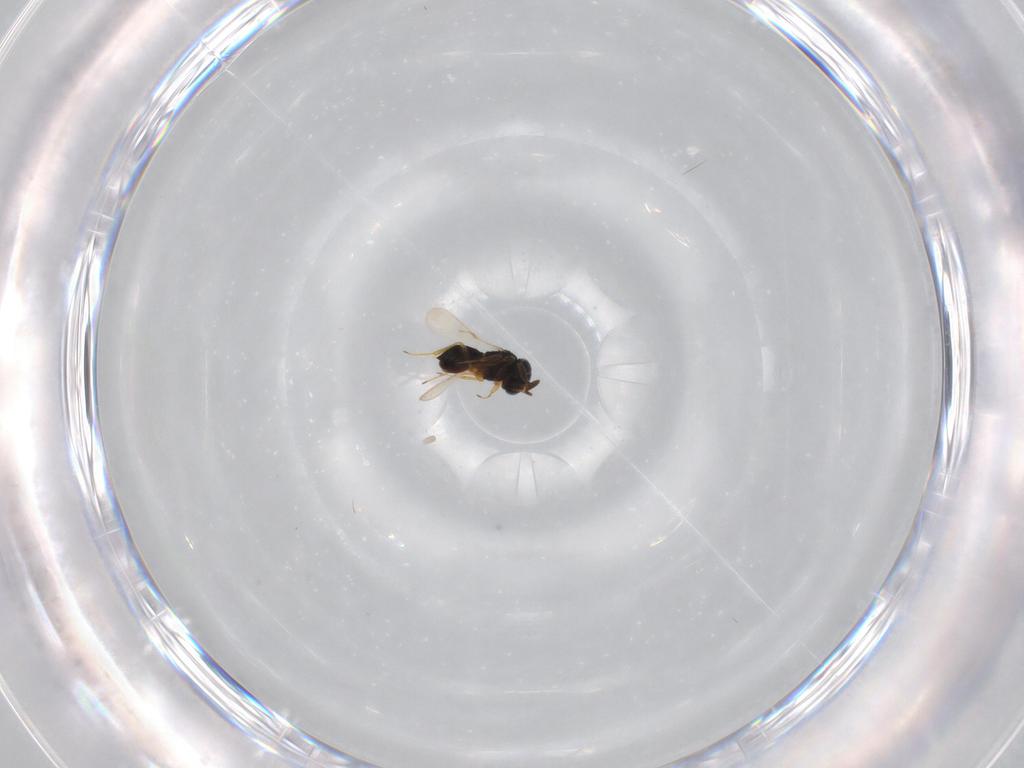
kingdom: Animalia
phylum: Arthropoda
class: Insecta
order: Hymenoptera
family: Scelionidae
